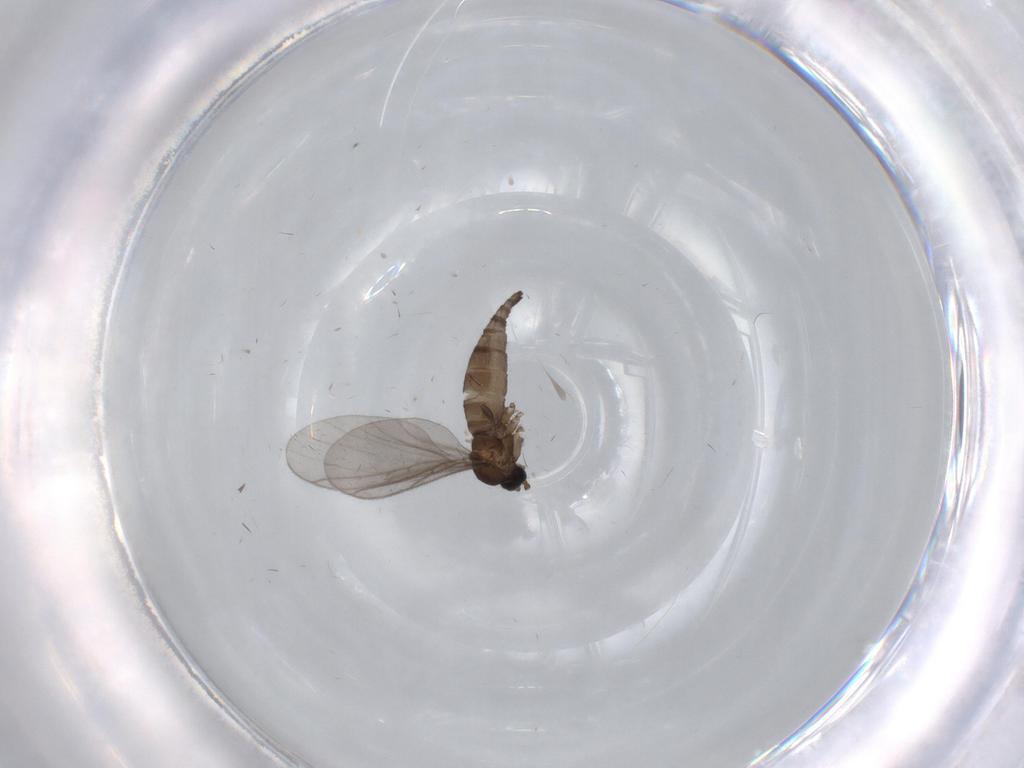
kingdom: Animalia
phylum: Arthropoda
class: Insecta
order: Diptera
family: Sciaridae
